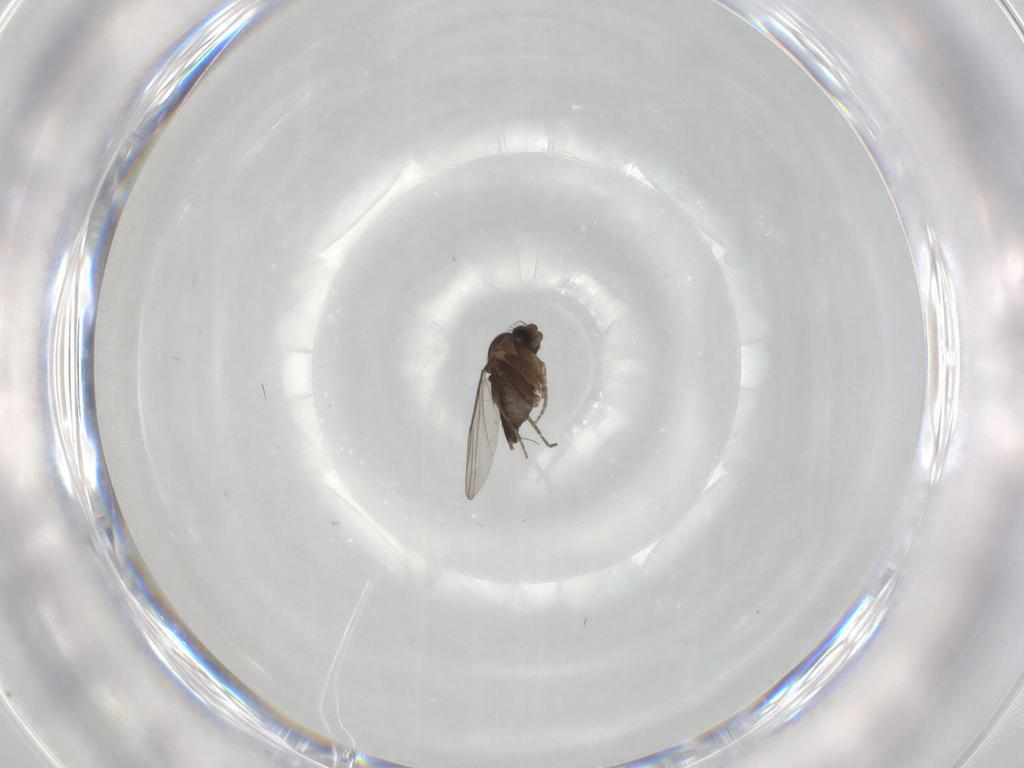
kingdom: Animalia
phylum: Arthropoda
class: Insecta
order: Diptera
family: Phoridae
